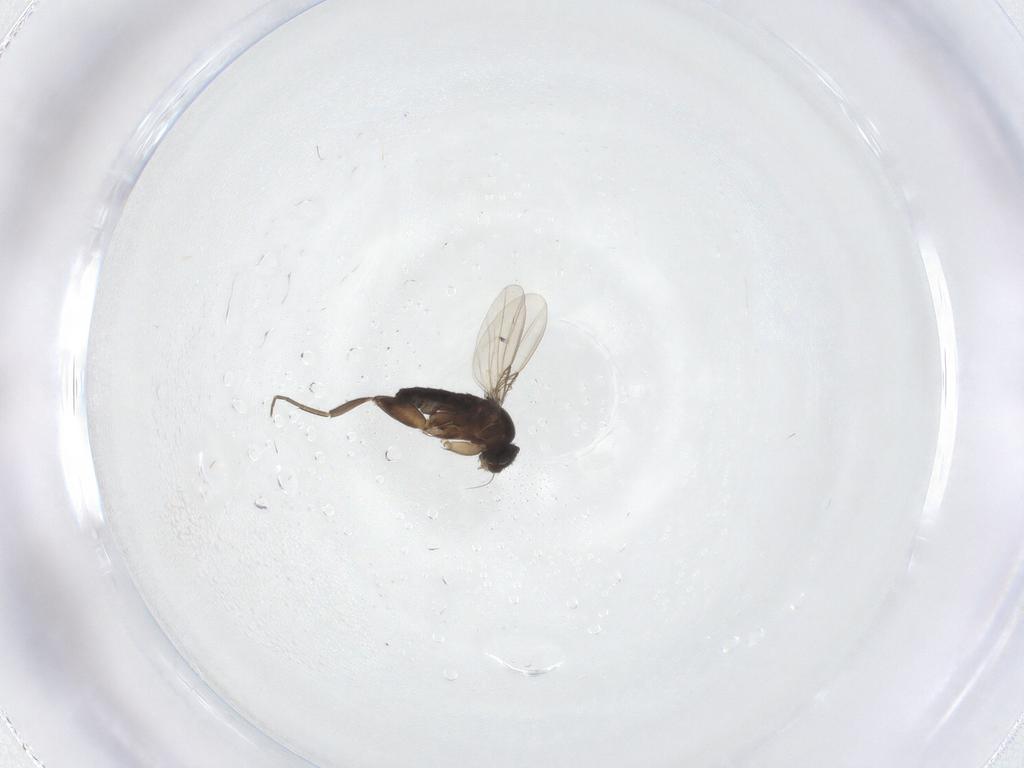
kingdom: Animalia
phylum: Arthropoda
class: Insecta
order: Diptera
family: Phoridae
